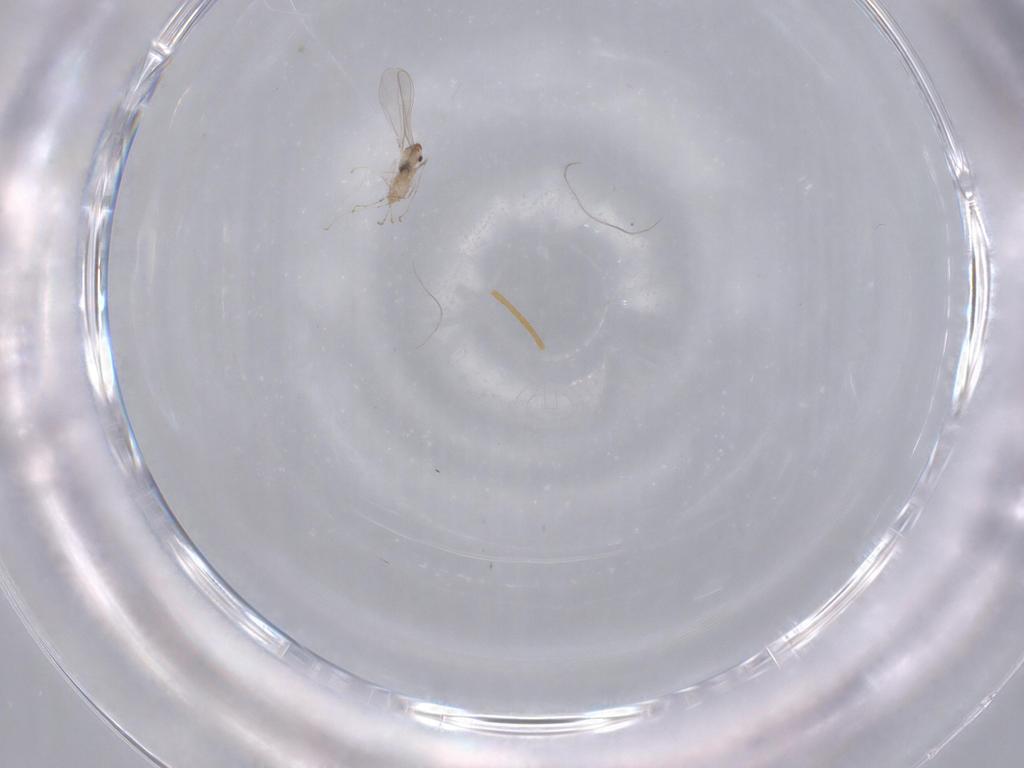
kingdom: Animalia
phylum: Arthropoda
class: Insecta
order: Diptera
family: Cecidomyiidae
